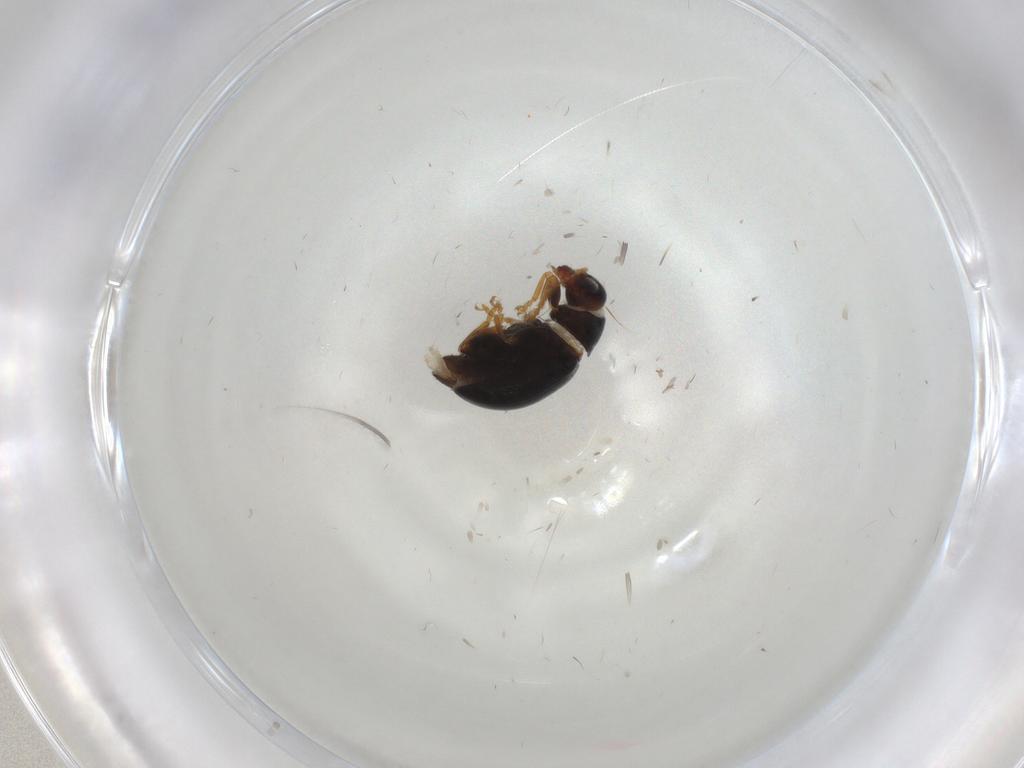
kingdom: Animalia
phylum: Arthropoda
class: Insecta
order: Coleoptera
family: Chrysomelidae
